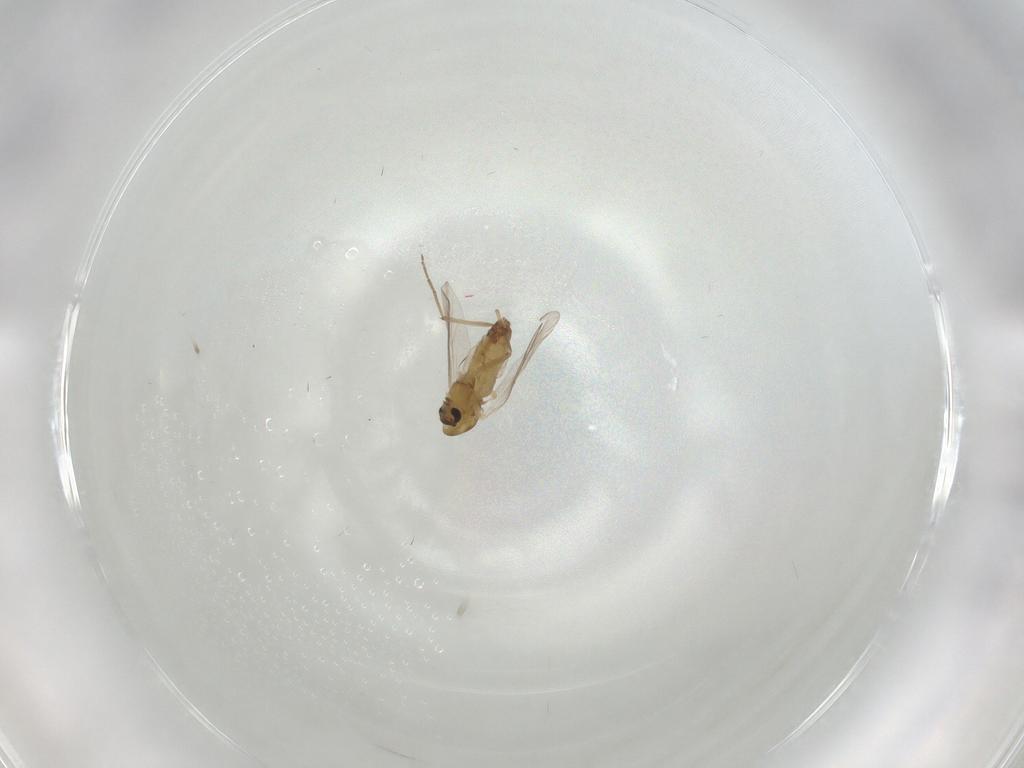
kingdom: Animalia
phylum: Arthropoda
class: Insecta
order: Diptera
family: Chironomidae
